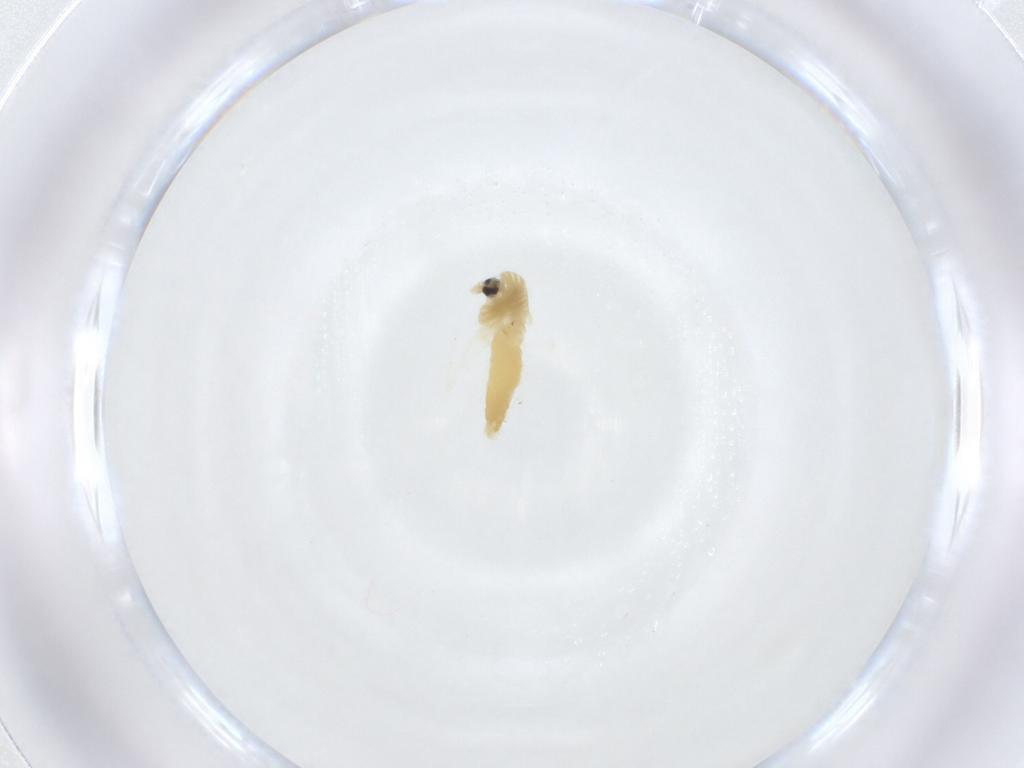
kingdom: Animalia
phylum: Arthropoda
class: Insecta
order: Diptera
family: Chironomidae
